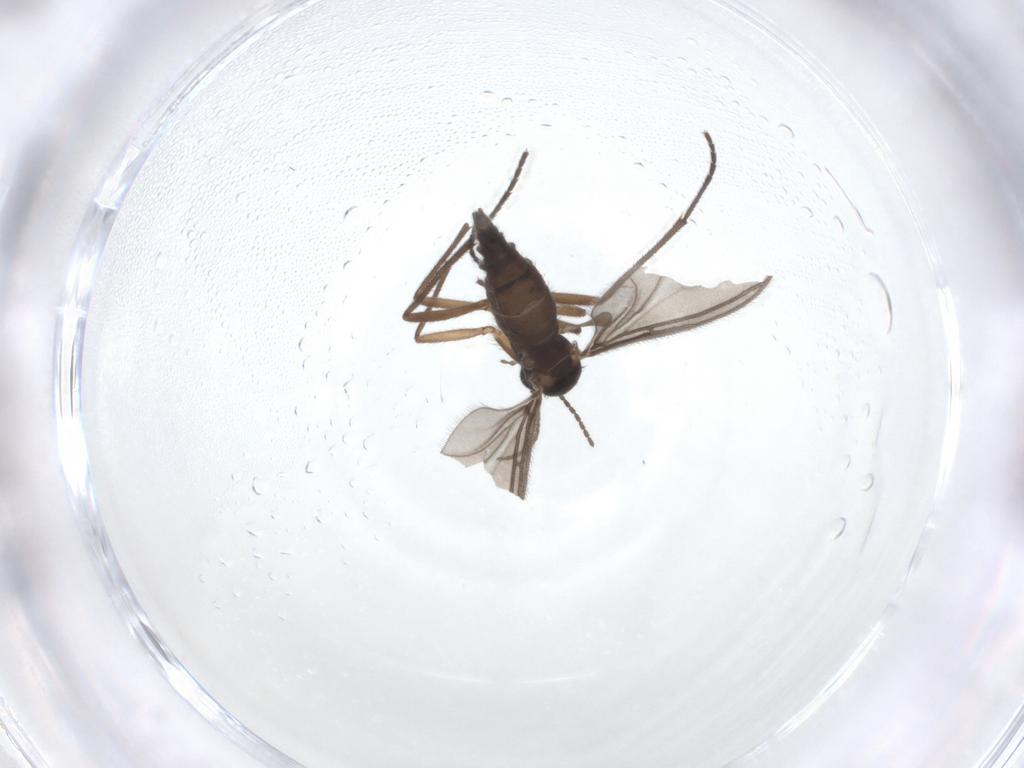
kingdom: Animalia
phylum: Arthropoda
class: Insecta
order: Diptera
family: Sciaridae
